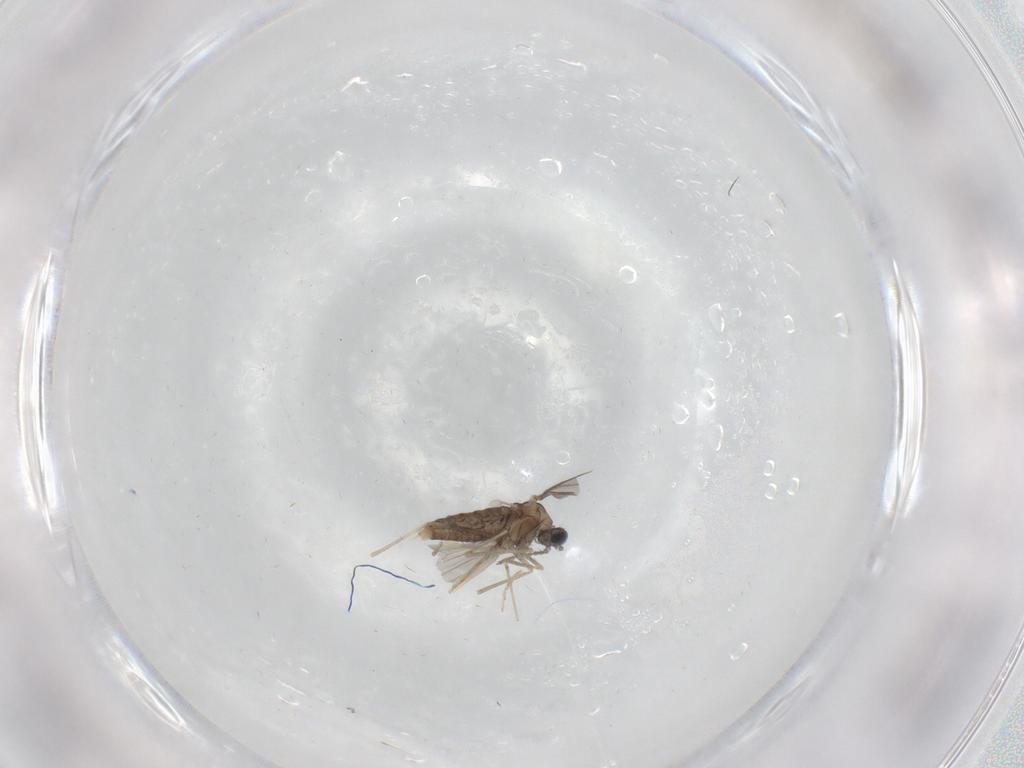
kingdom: Animalia
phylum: Arthropoda
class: Insecta
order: Diptera
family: Cecidomyiidae
